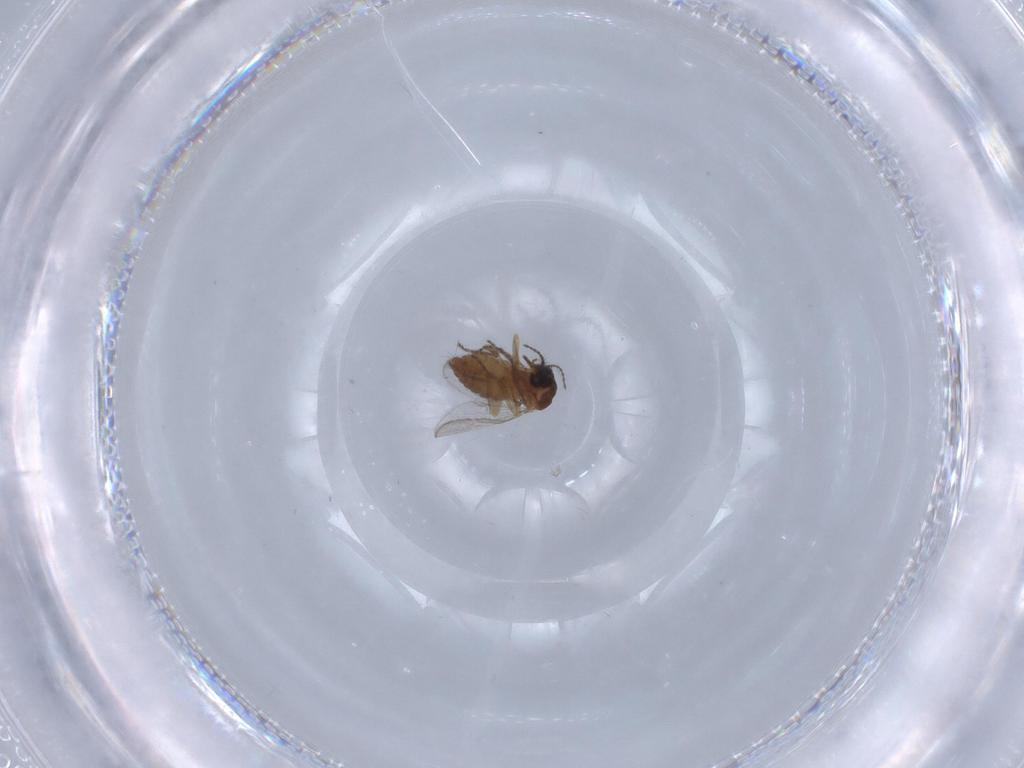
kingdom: Animalia
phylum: Arthropoda
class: Insecta
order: Diptera
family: Ceratopogonidae
